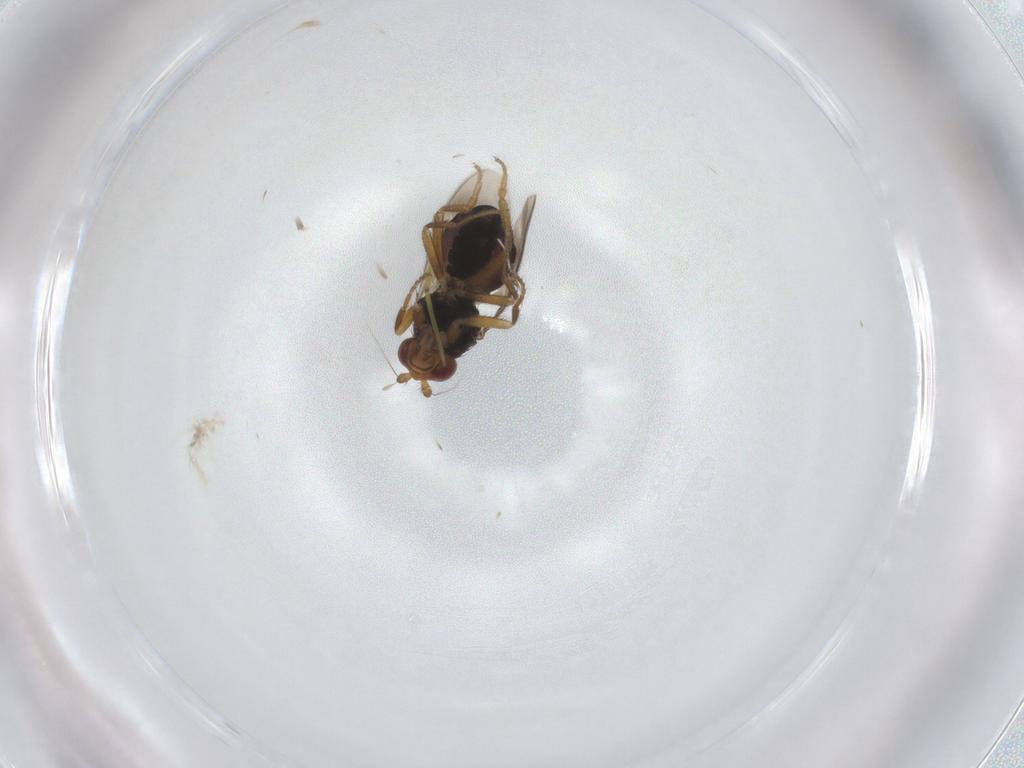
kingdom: Animalia
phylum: Arthropoda
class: Insecta
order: Diptera
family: Sphaeroceridae
